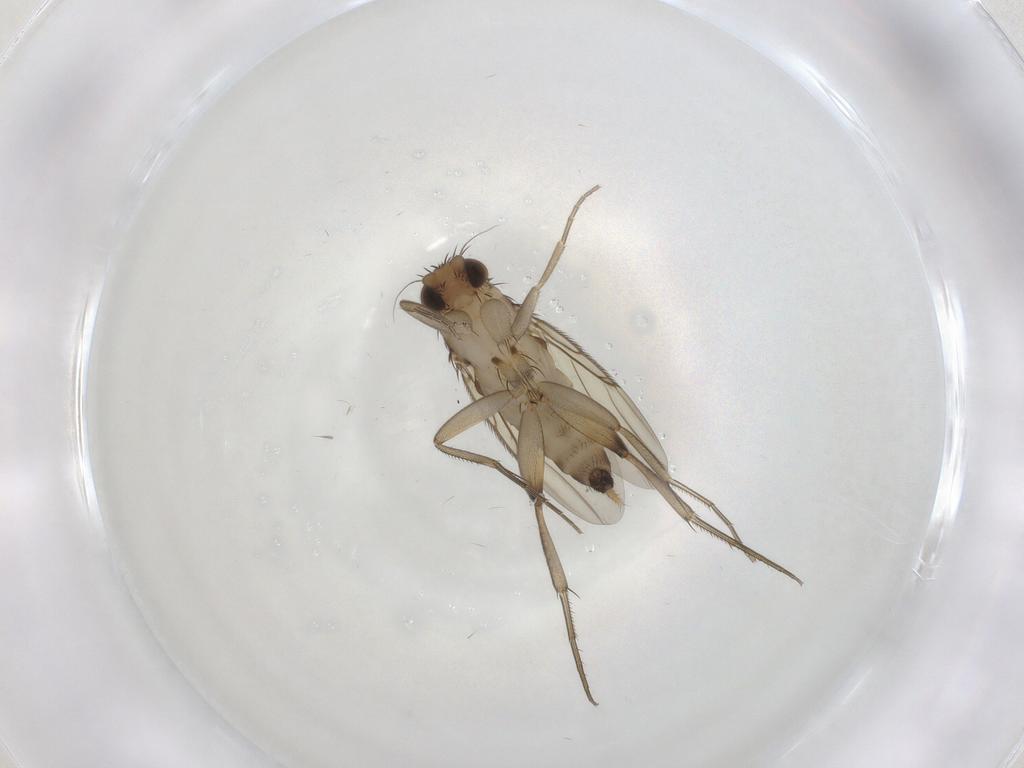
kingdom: Animalia
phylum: Arthropoda
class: Insecta
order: Diptera
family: Phoridae
